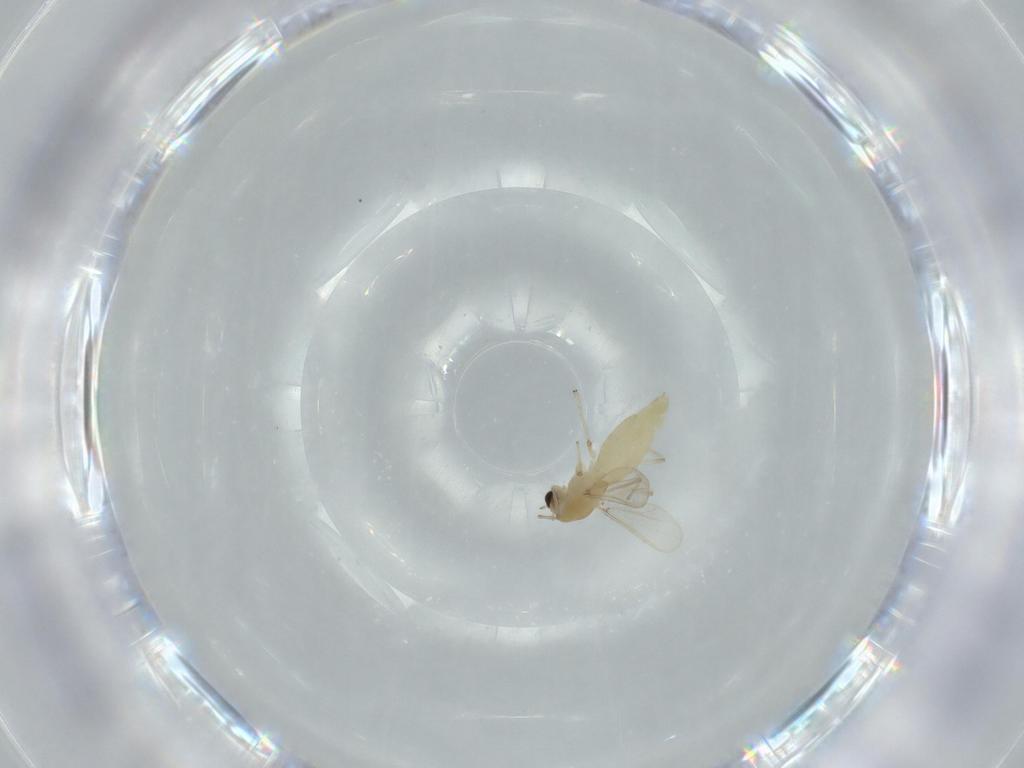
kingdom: Animalia
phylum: Arthropoda
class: Insecta
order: Diptera
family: Chironomidae
